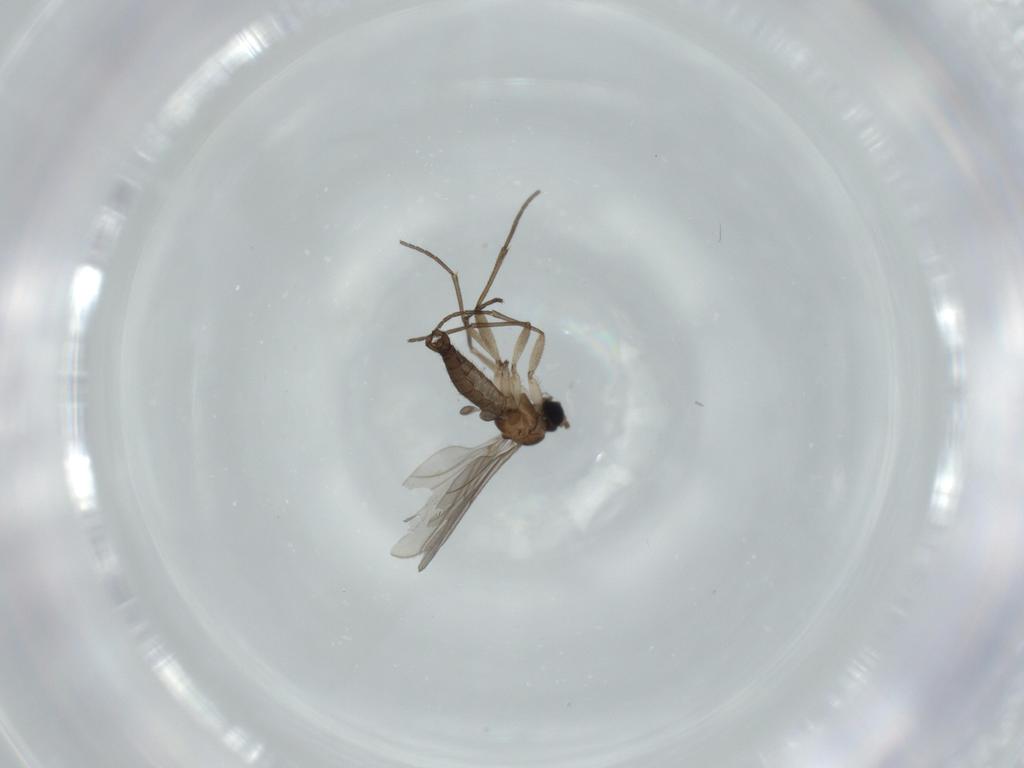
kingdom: Animalia
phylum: Arthropoda
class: Insecta
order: Diptera
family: Sciaridae
